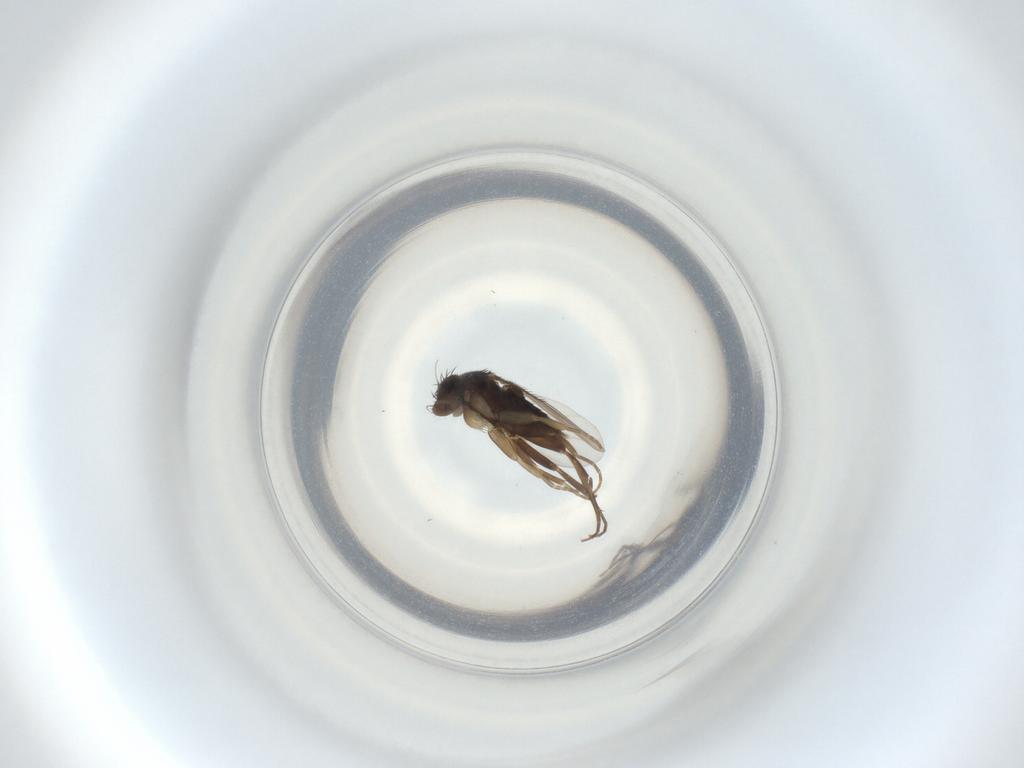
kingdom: Animalia
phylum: Arthropoda
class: Insecta
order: Diptera
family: Phoridae
